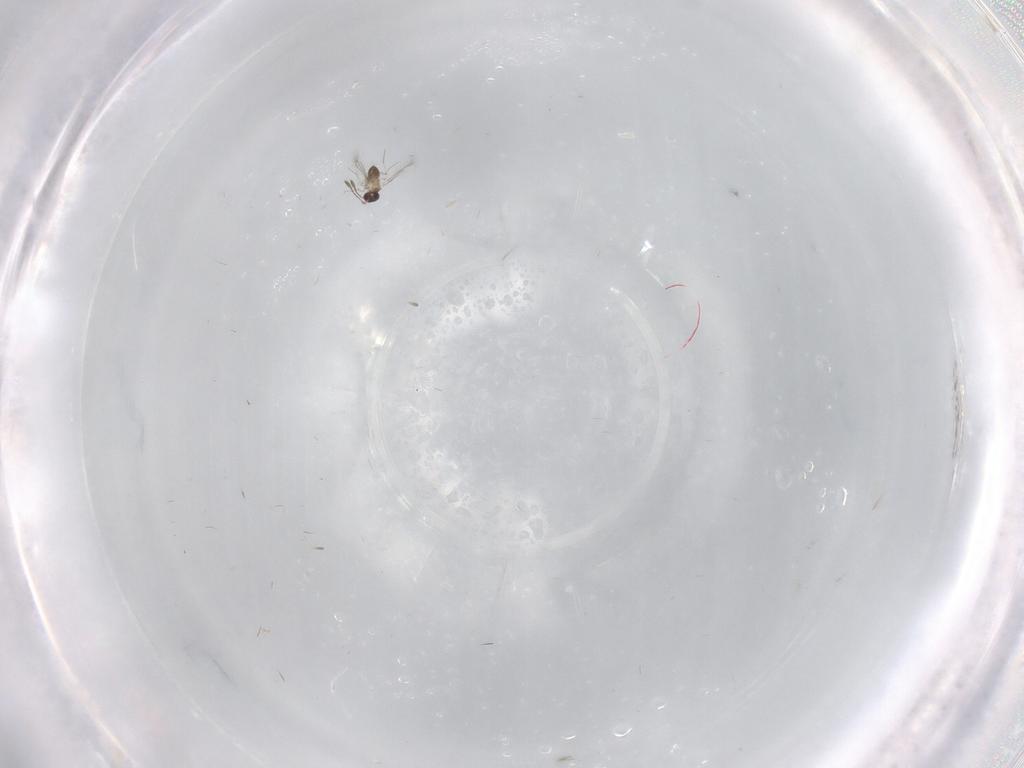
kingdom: Animalia
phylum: Arthropoda
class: Insecta
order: Hymenoptera
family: Mymaridae
